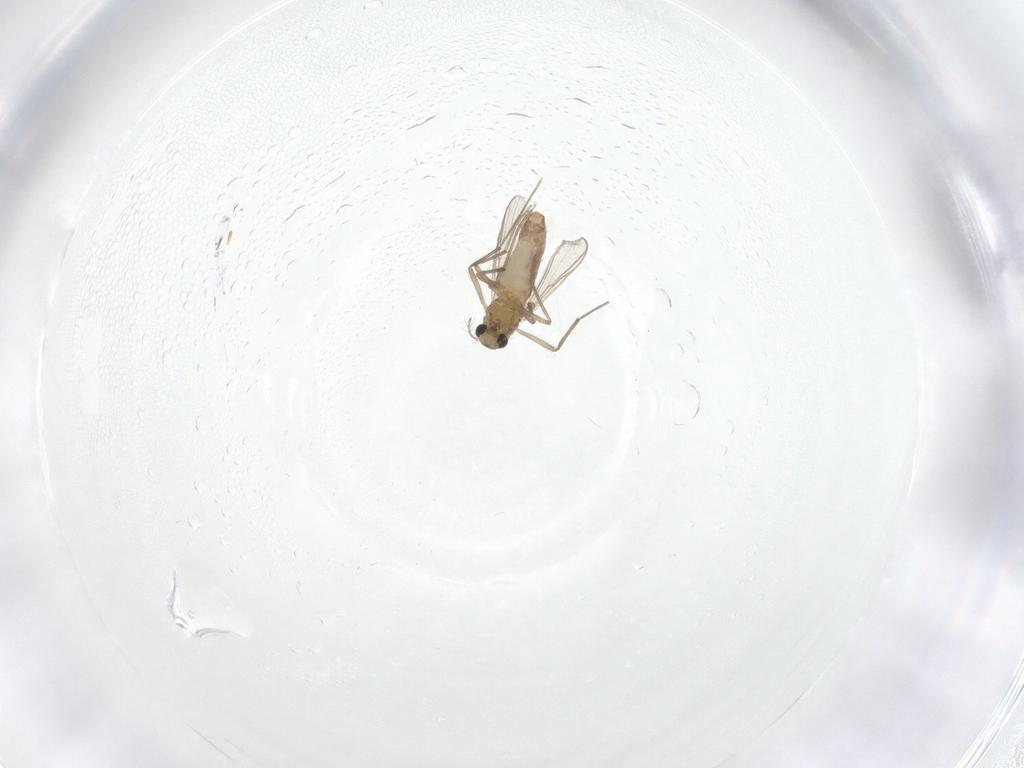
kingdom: Animalia
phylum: Arthropoda
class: Insecta
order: Diptera
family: Chironomidae
